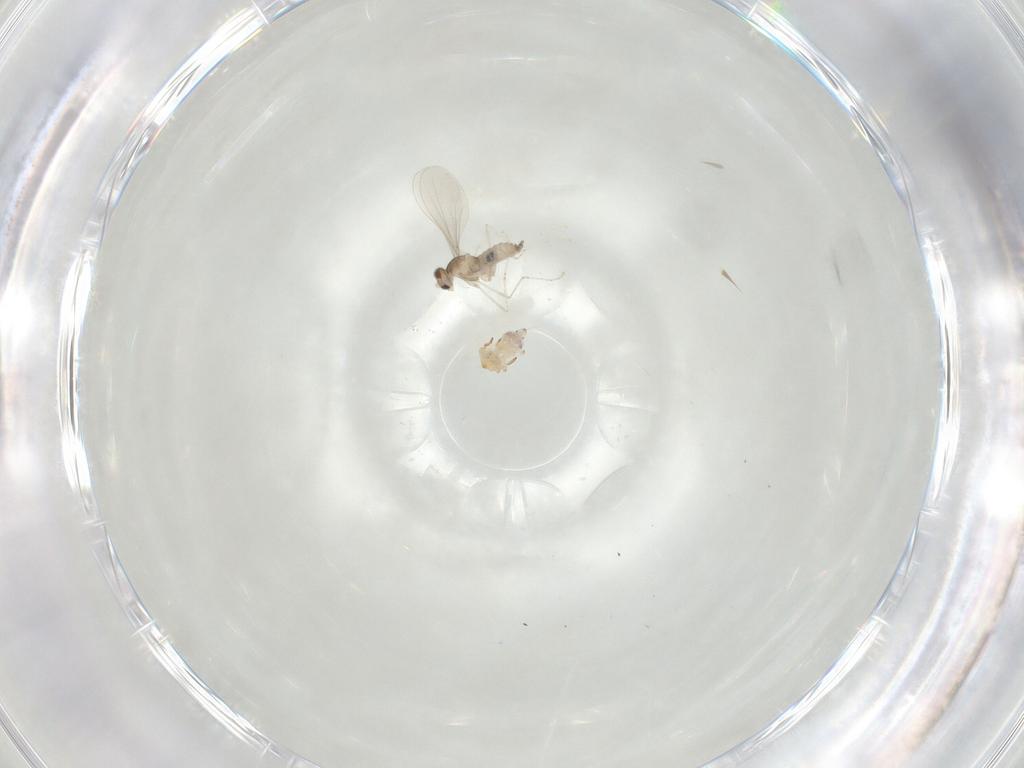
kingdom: Animalia
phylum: Arthropoda
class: Insecta
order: Diptera
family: Cecidomyiidae
